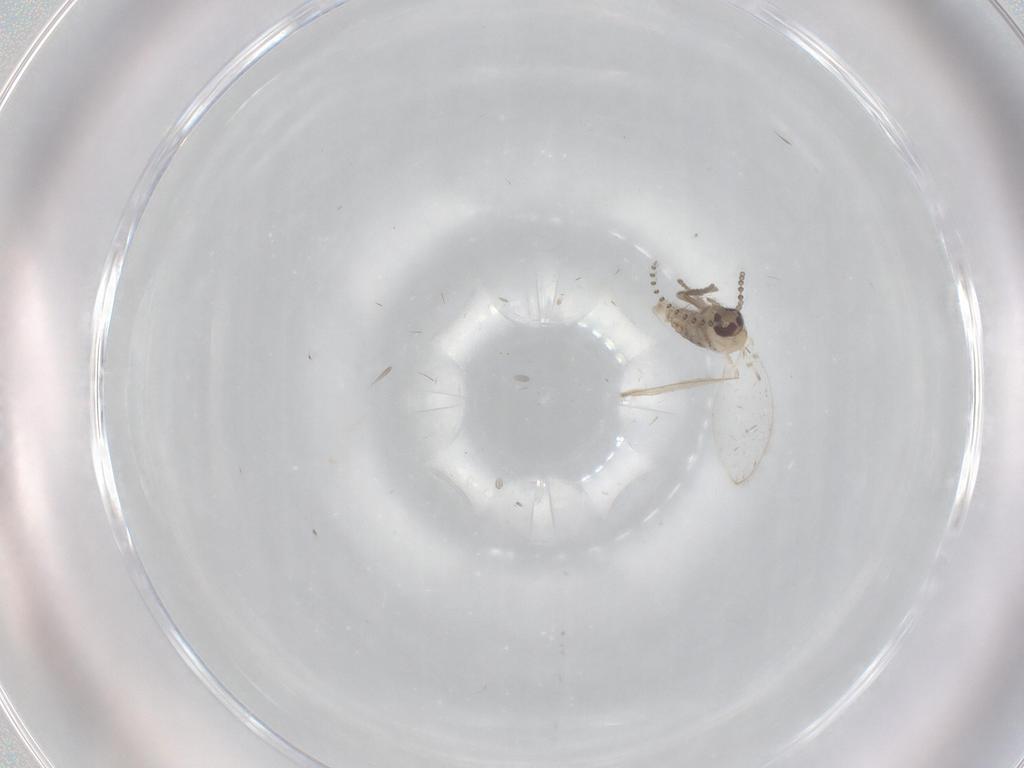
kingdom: Animalia
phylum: Arthropoda
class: Insecta
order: Diptera
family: Psychodidae
